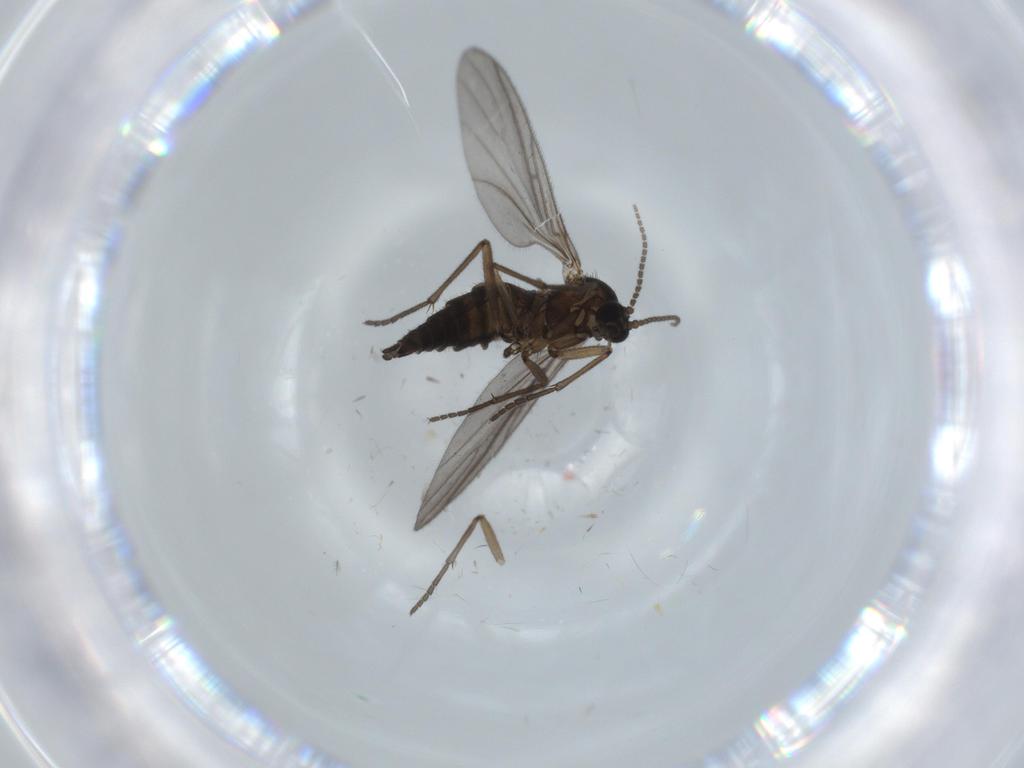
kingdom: Animalia
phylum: Arthropoda
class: Insecta
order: Diptera
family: Sciaridae
